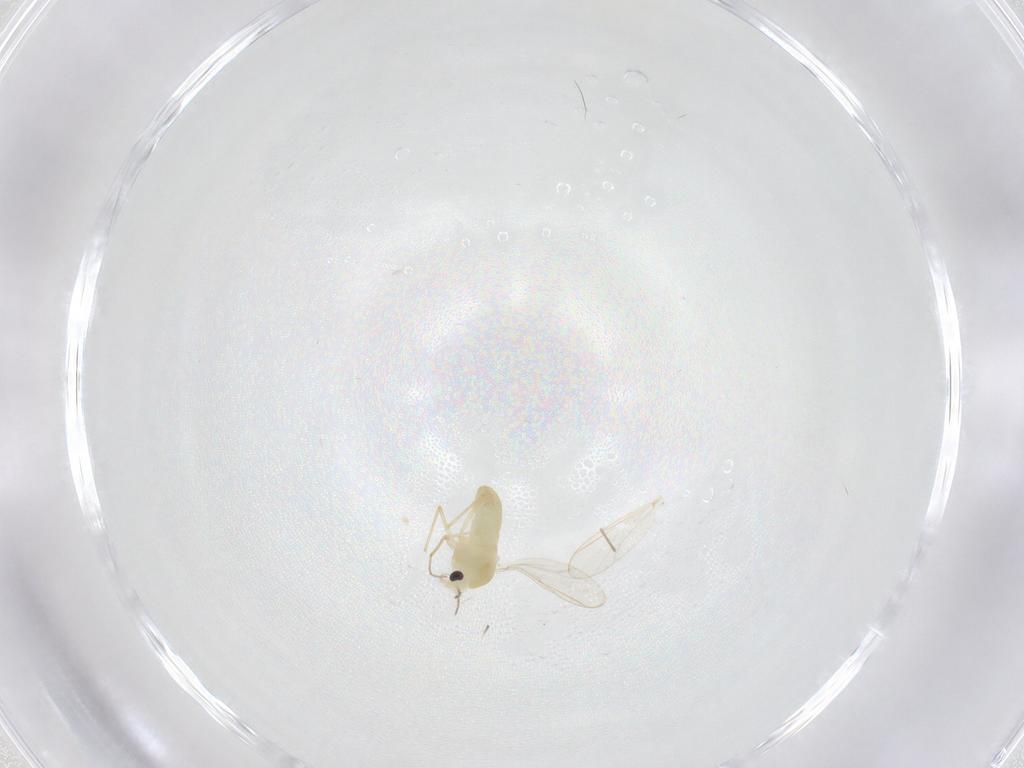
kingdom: Animalia
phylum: Arthropoda
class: Insecta
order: Diptera
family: Chironomidae
